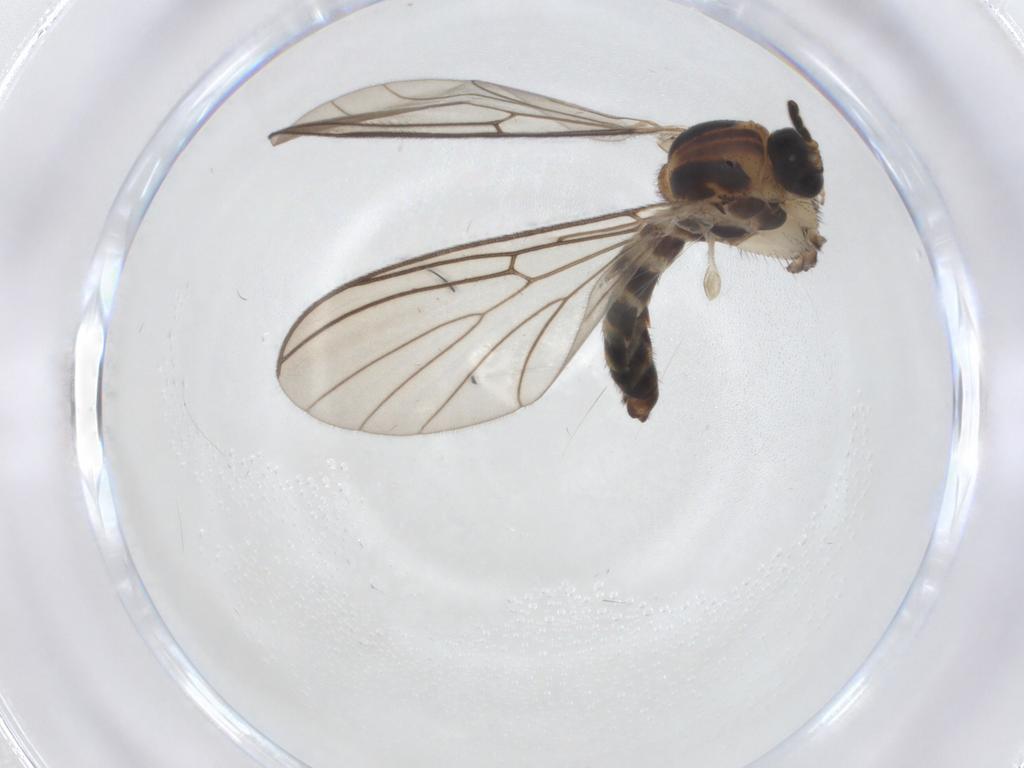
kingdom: Animalia
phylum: Arthropoda
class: Insecta
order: Diptera
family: Mycetophilidae
